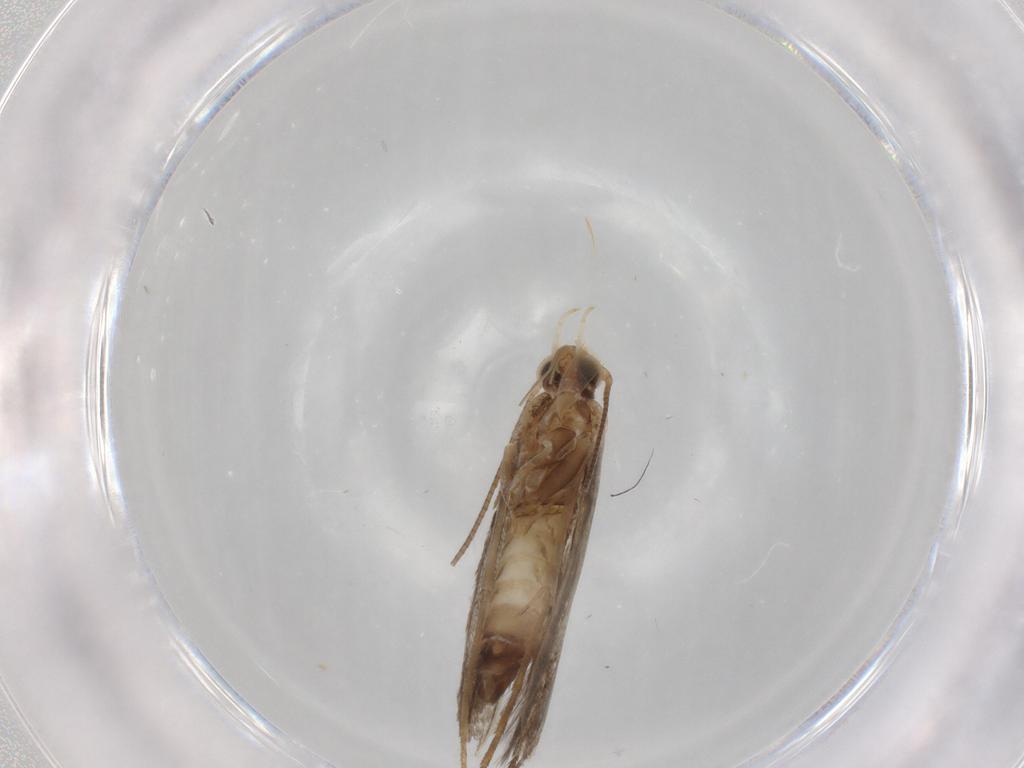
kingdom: Animalia
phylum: Arthropoda
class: Insecta
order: Lepidoptera
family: Gracillariidae
